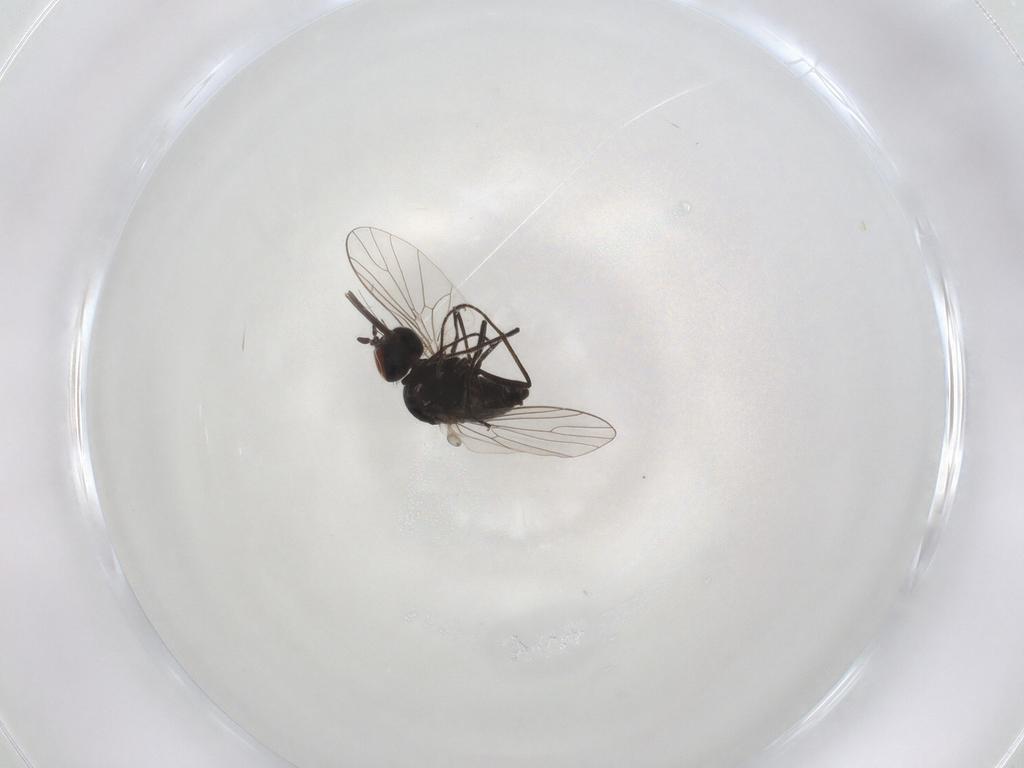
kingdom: Animalia
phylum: Arthropoda
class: Insecta
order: Diptera
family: Bombyliidae
